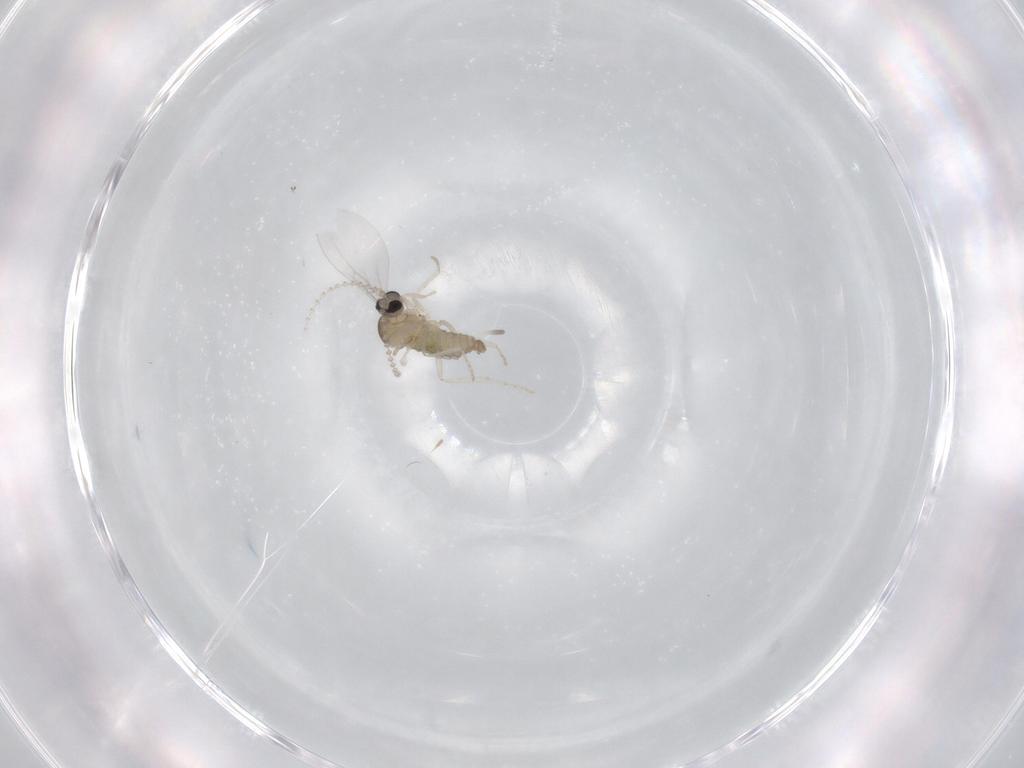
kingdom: Animalia
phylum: Arthropoda
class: Insecta
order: Diptera
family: Cecidomyiidae
